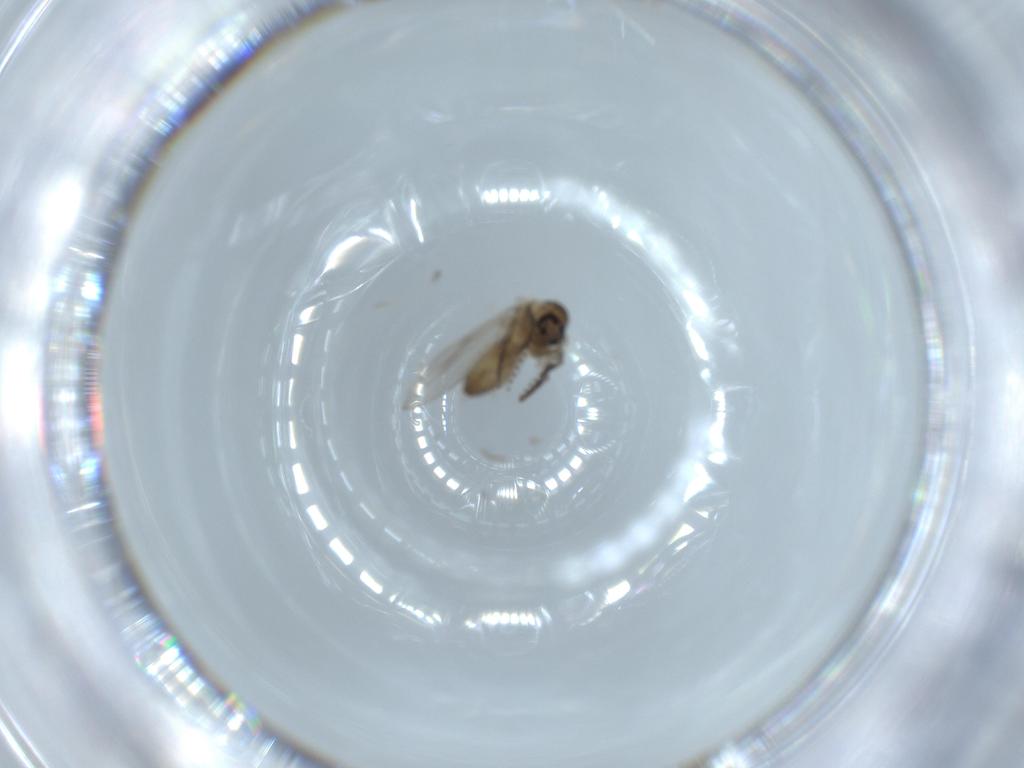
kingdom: Animalia
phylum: Arthropoda
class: Insecta
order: Diptera
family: Psychodidae
